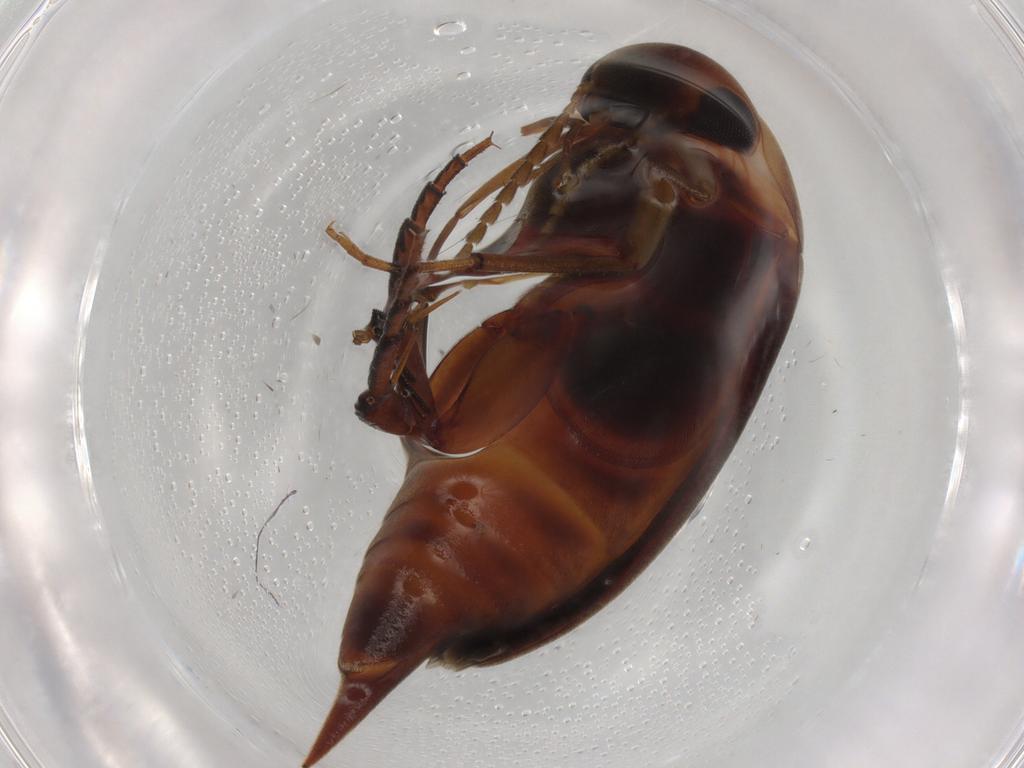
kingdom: Animalia
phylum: Arthropoda
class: Insecta
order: Coleoptera
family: Mordellidae
